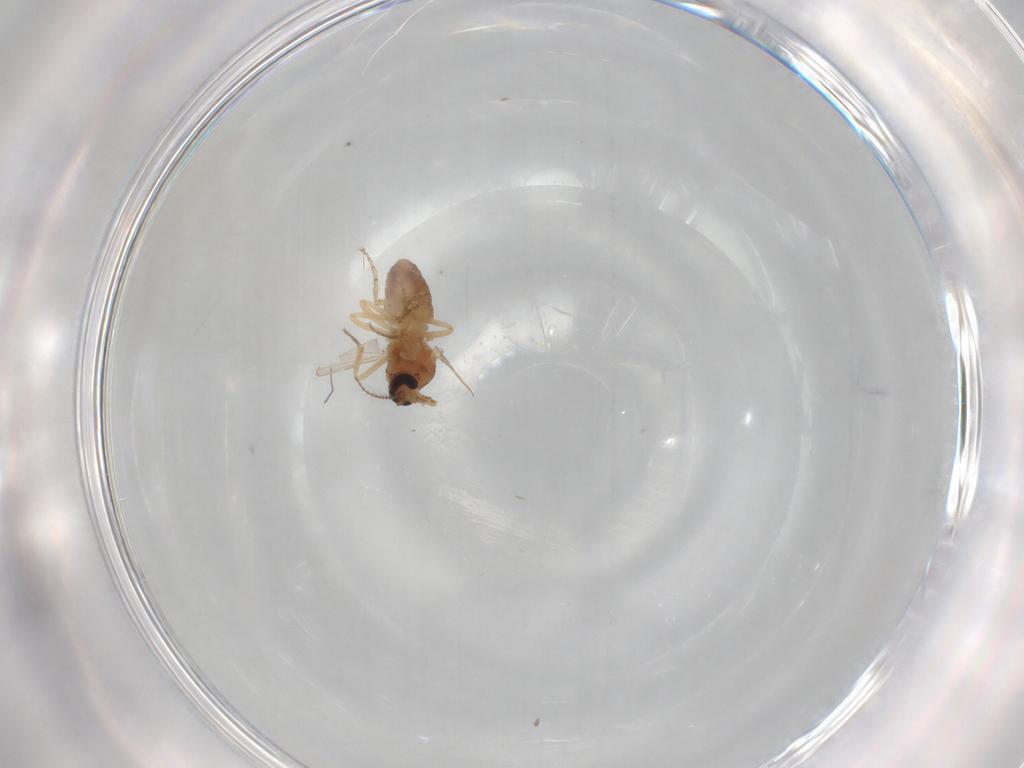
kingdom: Animalia
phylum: Arthropoda
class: Insecta
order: Diptera
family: Ceratopogonidae
